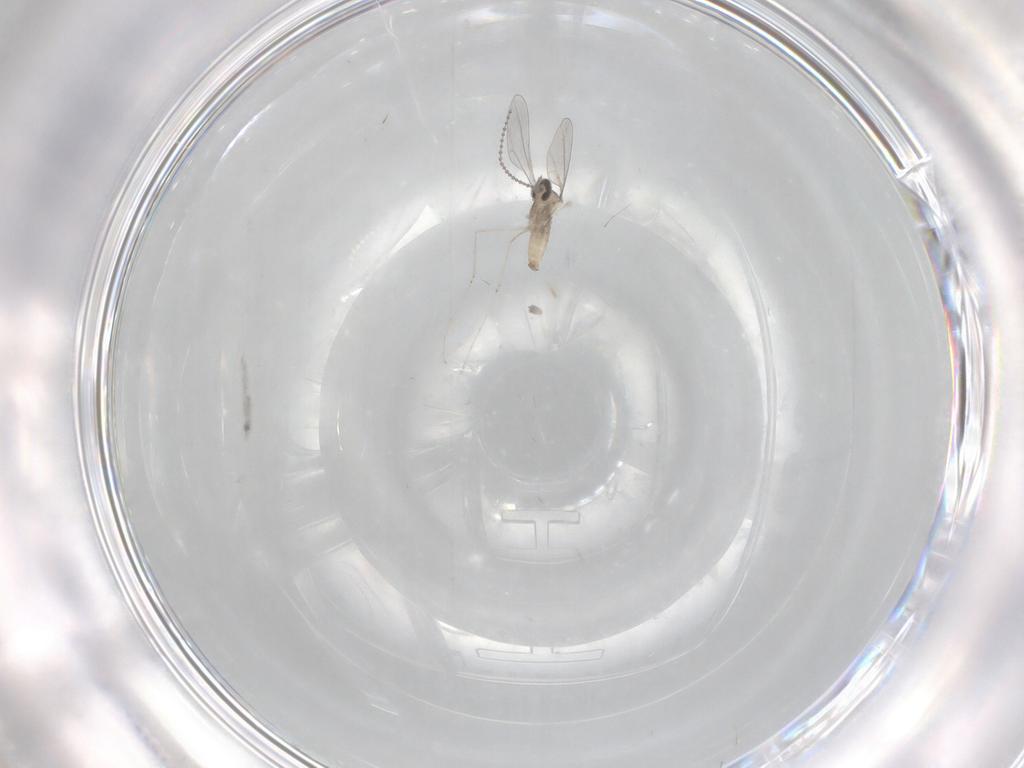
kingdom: Animalia
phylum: Arthropoda
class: Insecta
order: Diptera
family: Cecidomyiidae
